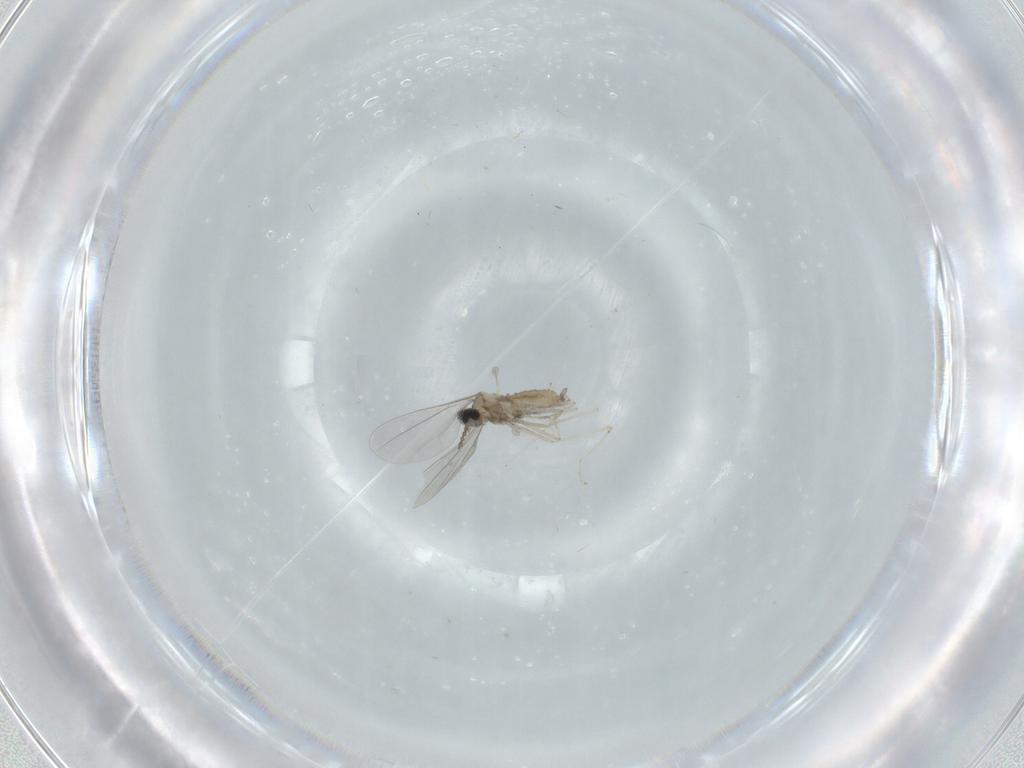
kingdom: Animalia
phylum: Arthropoda
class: Insecta
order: Diptera
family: Cecidomyiidae
